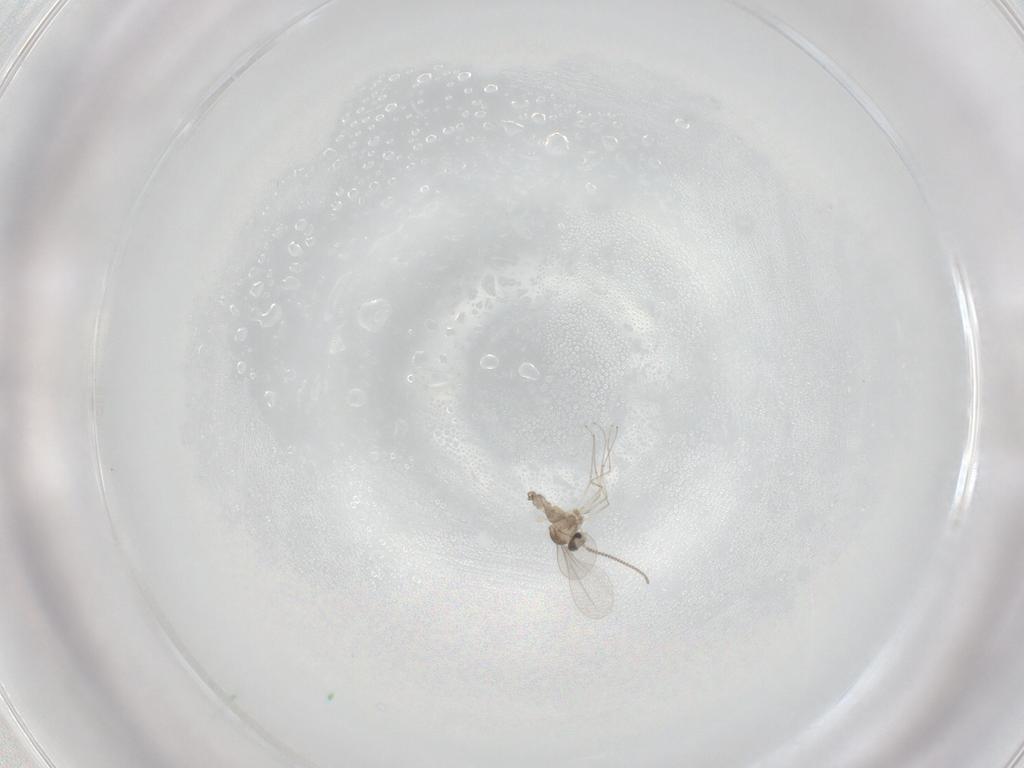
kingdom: Animalia
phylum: Arthropoda
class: Insecta
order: Diptera
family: Cecidomyiidae
